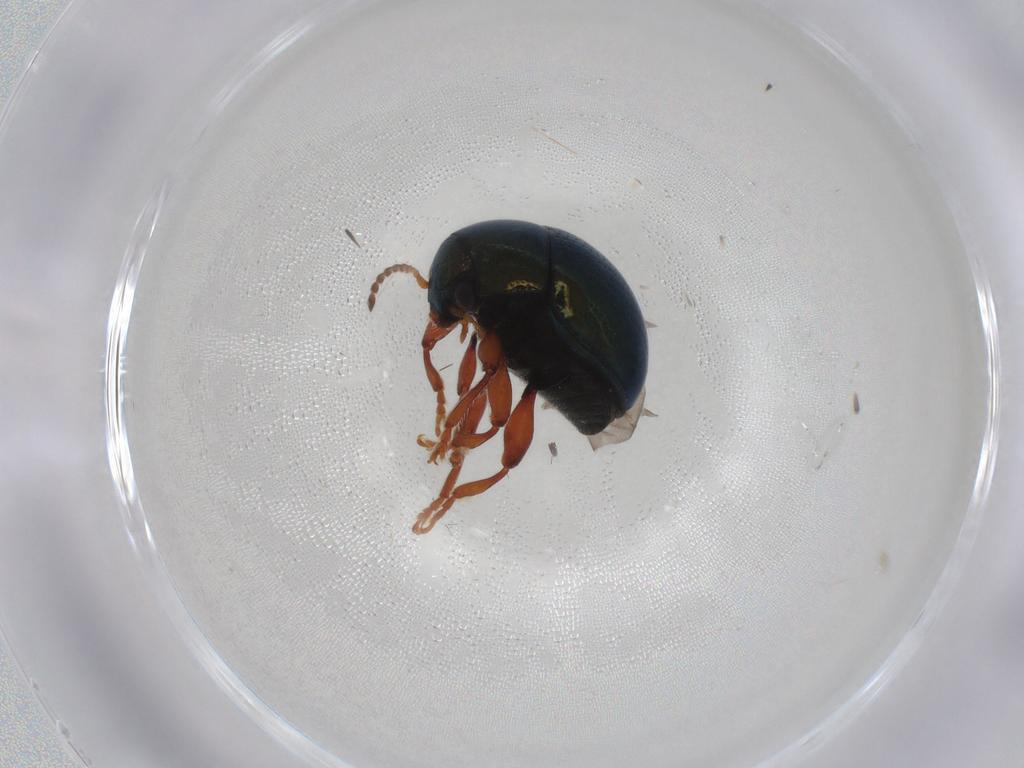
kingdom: Animalia
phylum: Arthropoda
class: Insecta
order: Coleoptera
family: Chrysomelidae
